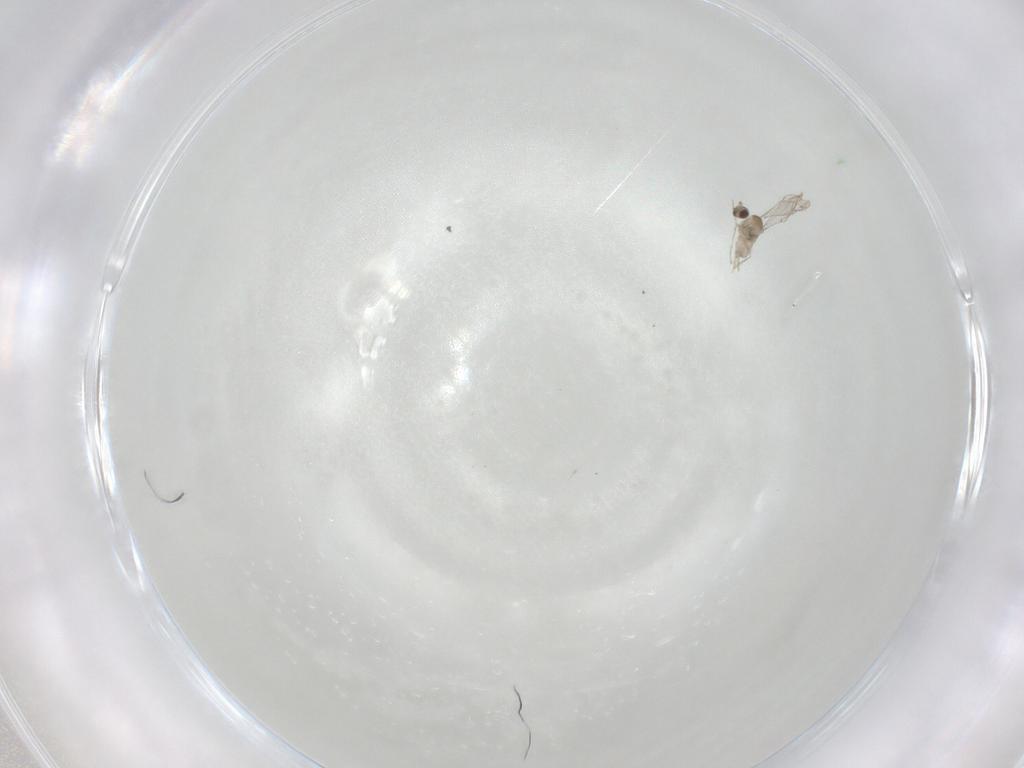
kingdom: Animalia
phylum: Arthropoda
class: Insecta
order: Diptera
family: Cecidomyiidae
